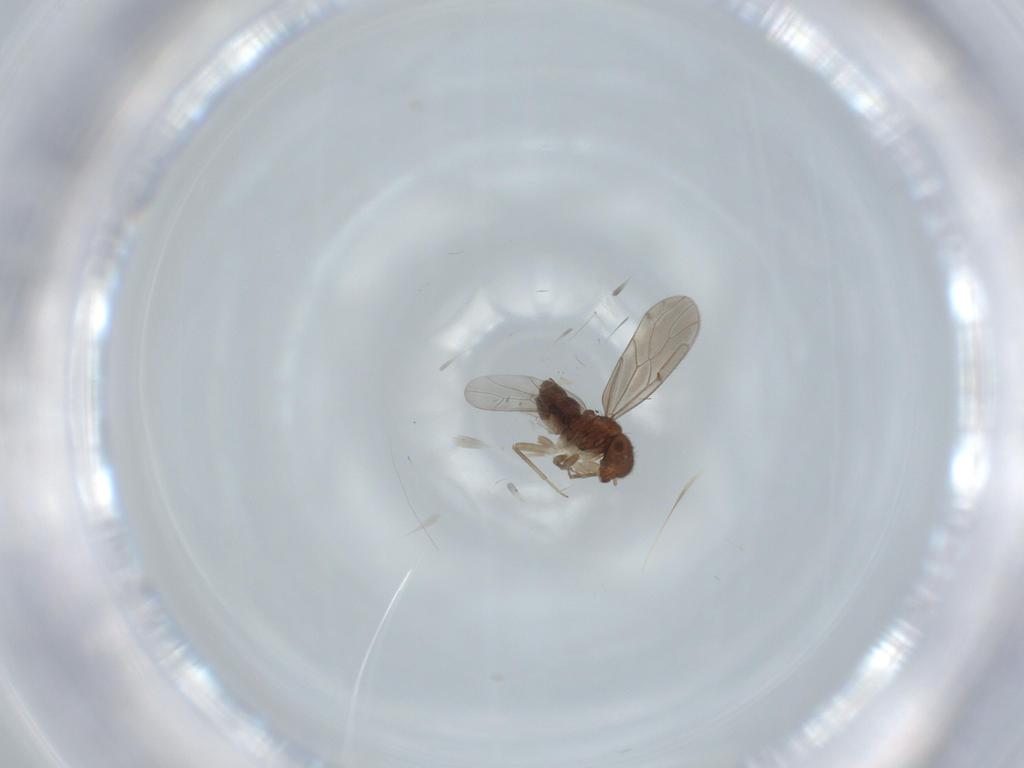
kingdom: Animalia
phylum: Arthropoda
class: Insecta
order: Psocodea
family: Ectopsocidae
